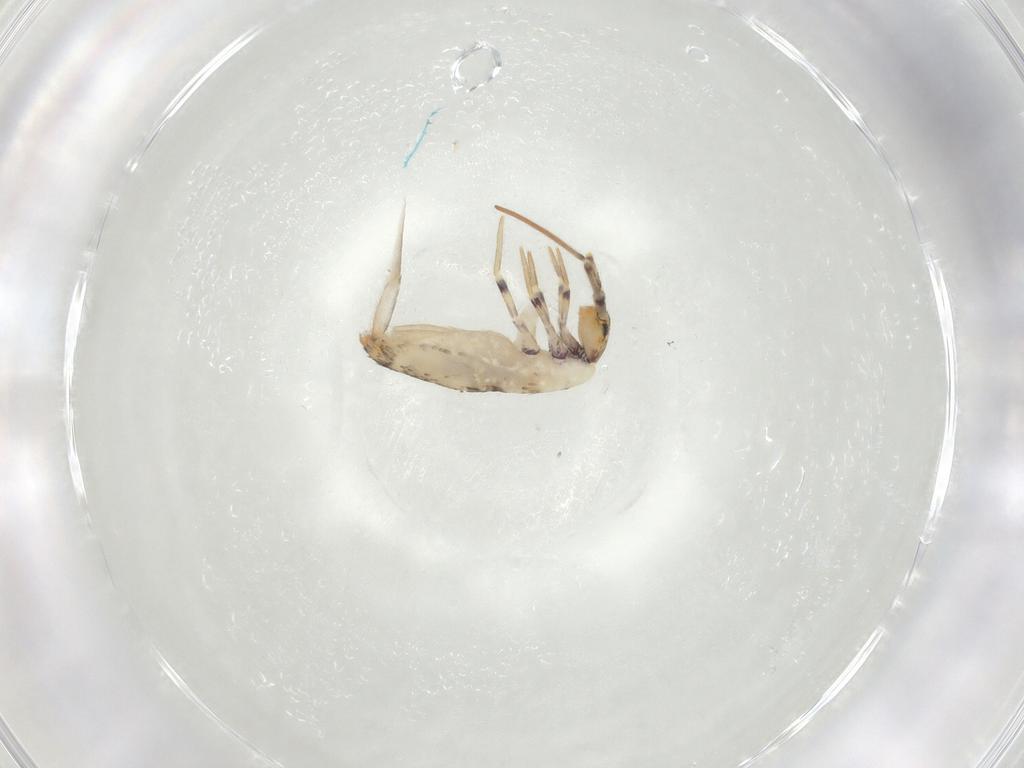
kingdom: Animalia
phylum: Arthropoda
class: Collembola
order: Entomobryomorpha
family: Entomobryidae
